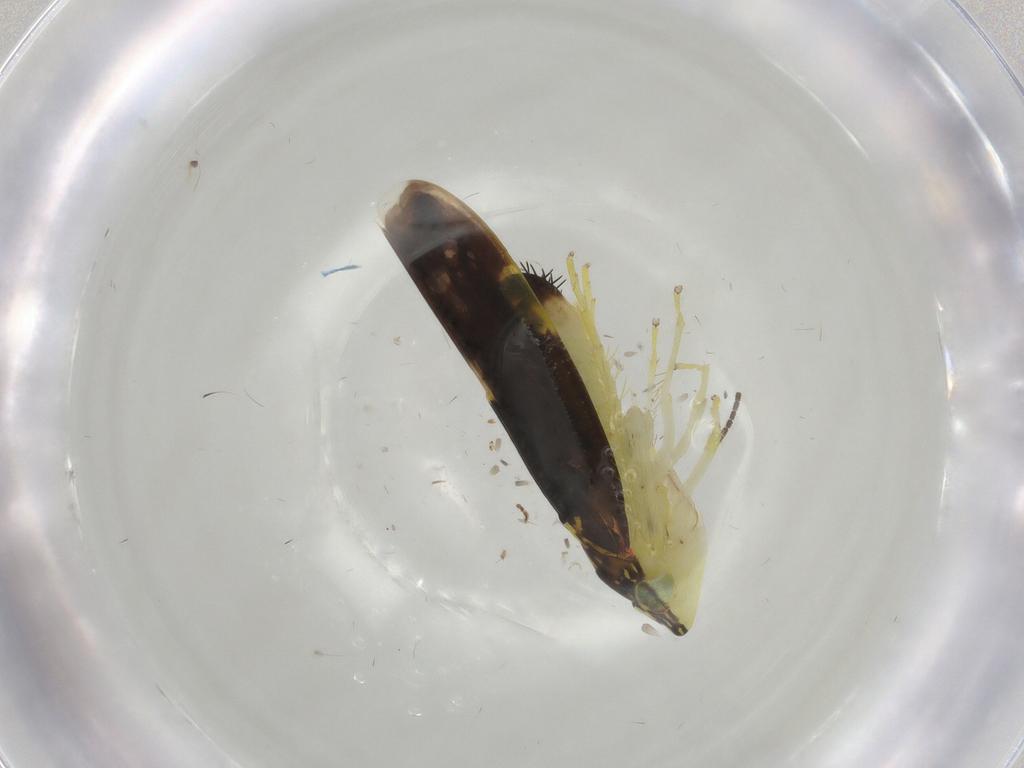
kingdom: Animalia
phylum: Arthropoda
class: Insecta
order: Hemiptera
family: Cicadellidae
